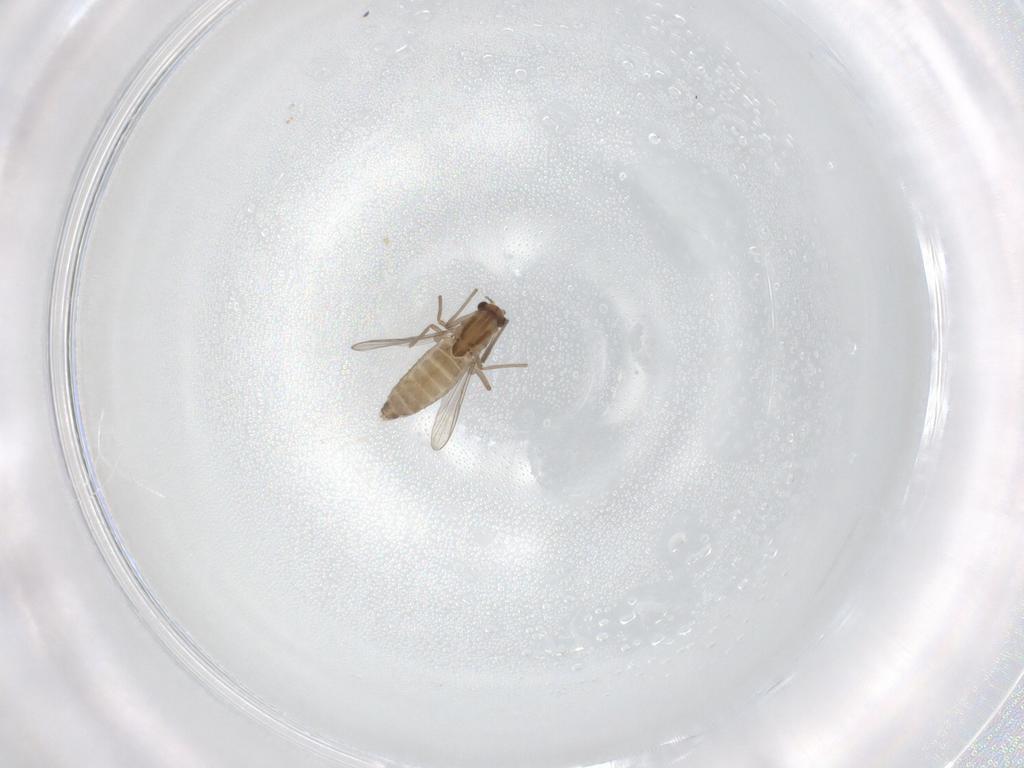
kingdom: Animalia
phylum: Arthropoda
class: Insecta
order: Diptera
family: Chironomidae
